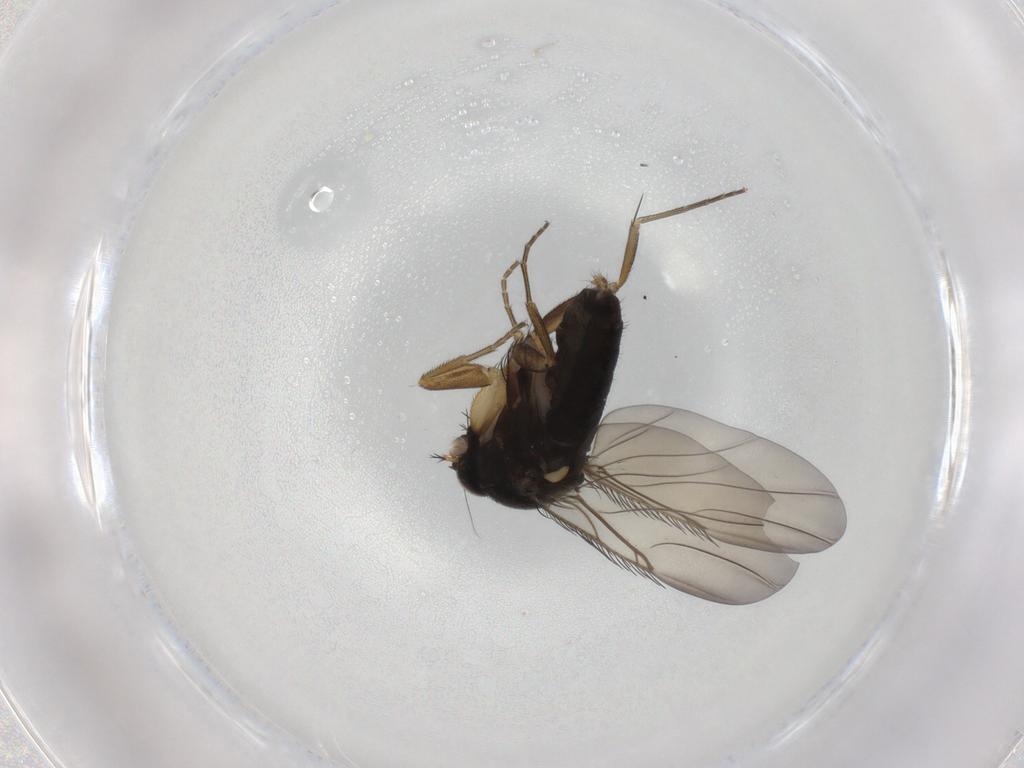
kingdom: Animalia
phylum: Arthropoda
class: Insecta
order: Diptera
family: Phoridae
